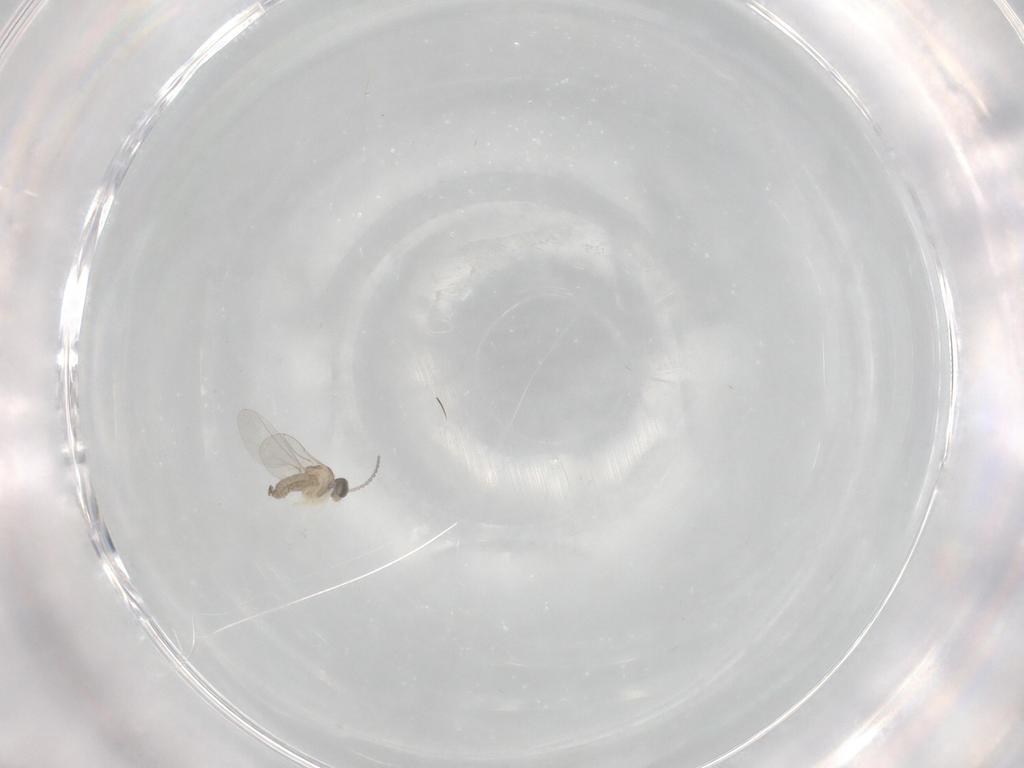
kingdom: Animalia
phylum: Arthropoda
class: Insecta
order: Diptera
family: Cecidomyiidae
